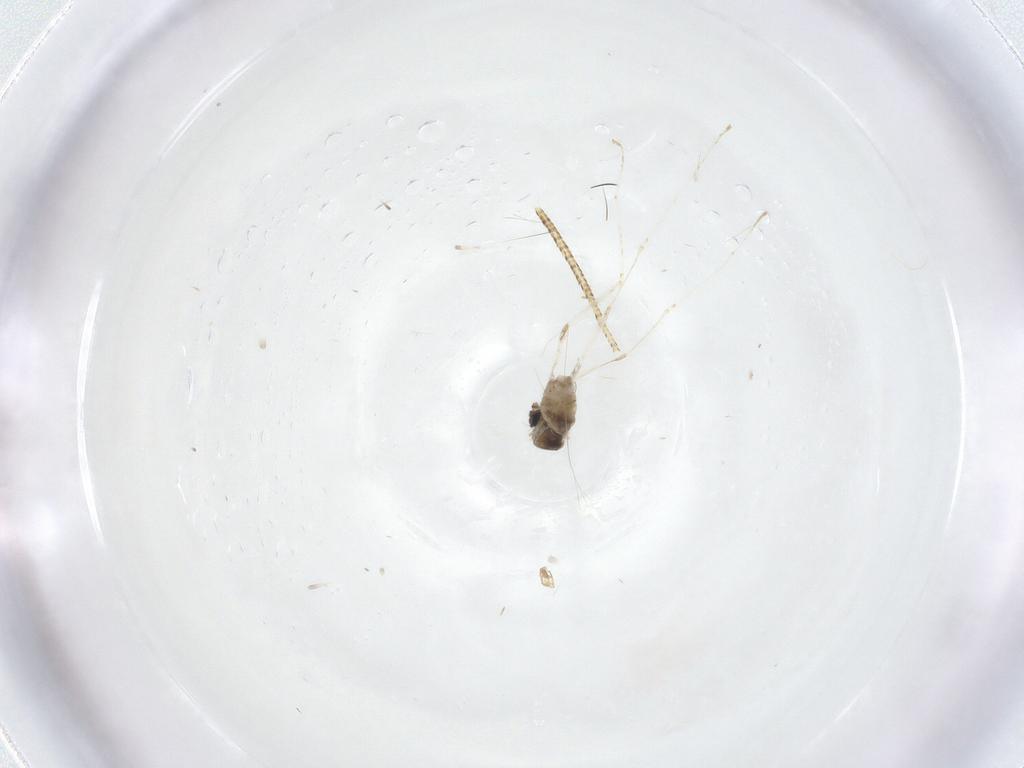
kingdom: Animalia
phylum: Arthropoda
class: Insecta
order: Diptera
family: Cecidomyiidae
